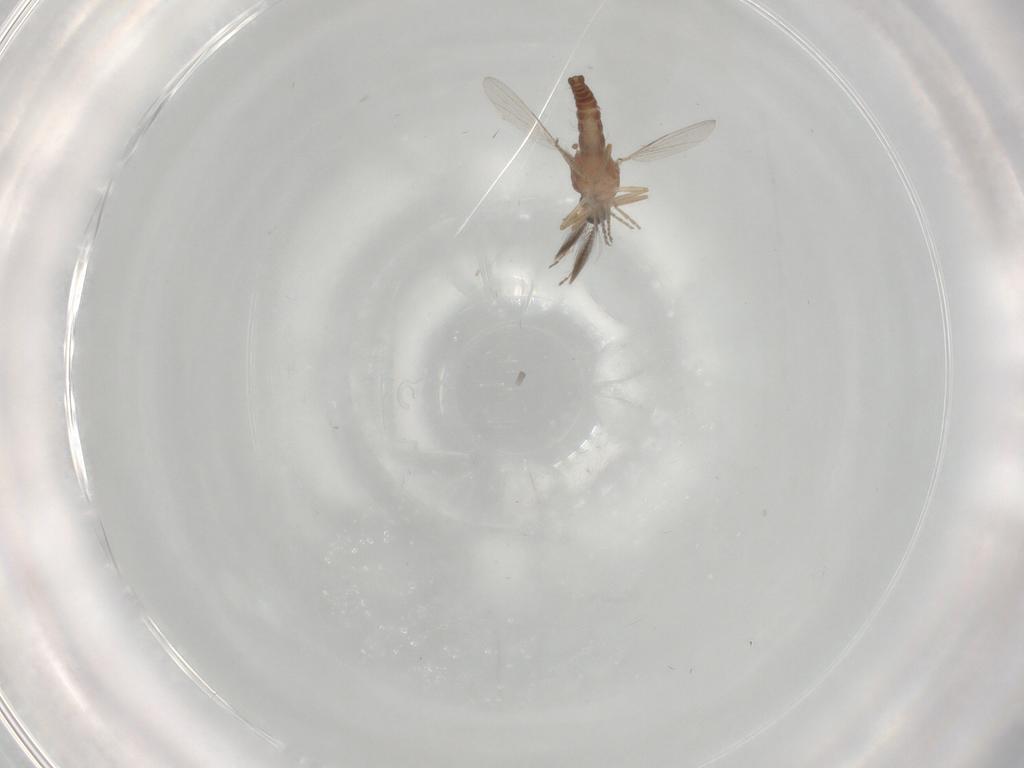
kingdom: Animalia
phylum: Arthropoda
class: Insecta
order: Diptera
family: Ceratopogonidae
